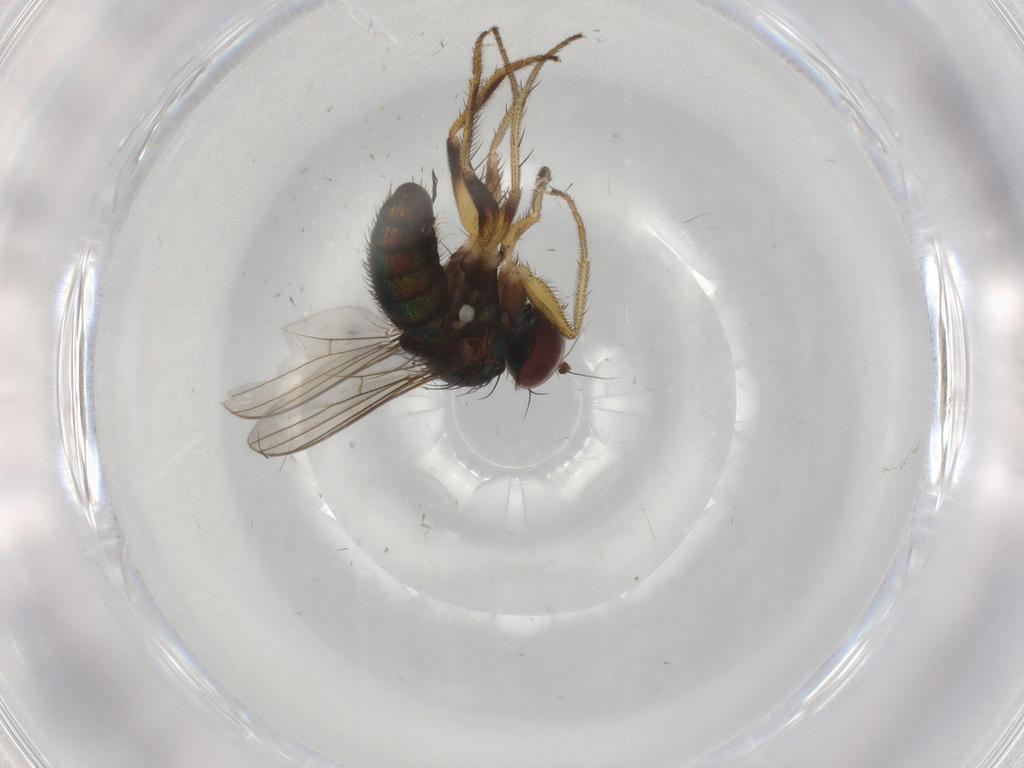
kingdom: Animalia
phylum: Arthropoda
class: Insecta
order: Diptera
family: Dolichopodidae
